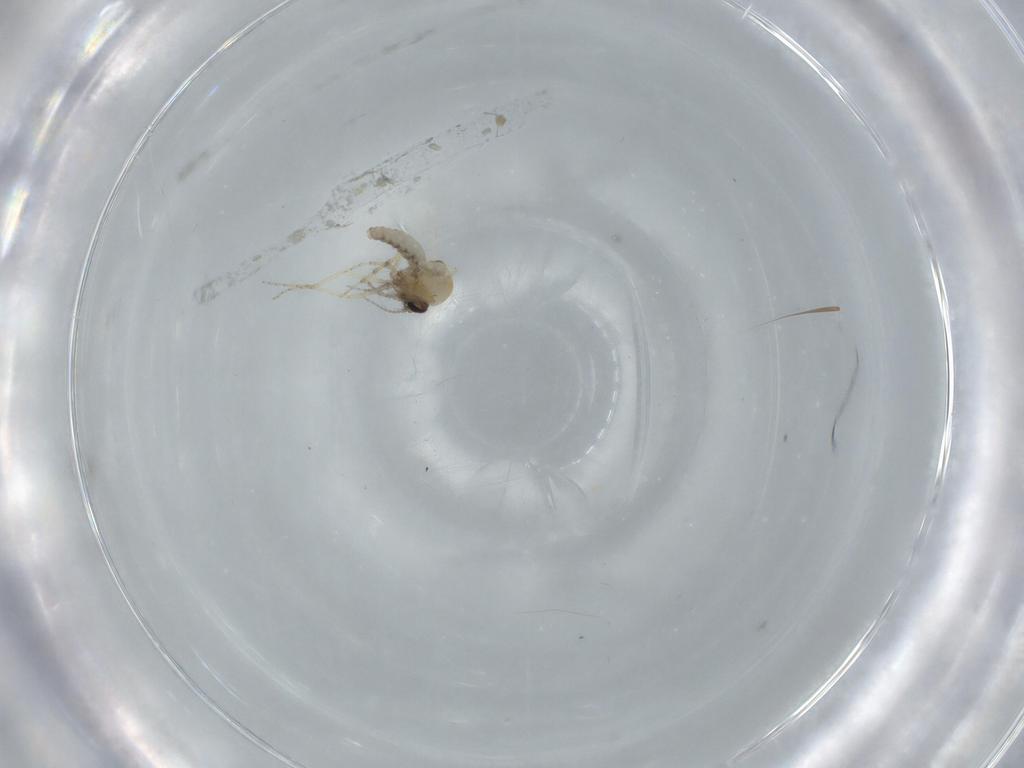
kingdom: Animalia
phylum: Arthropoda
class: Insecta
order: Diptera
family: Ceratopogonidae
